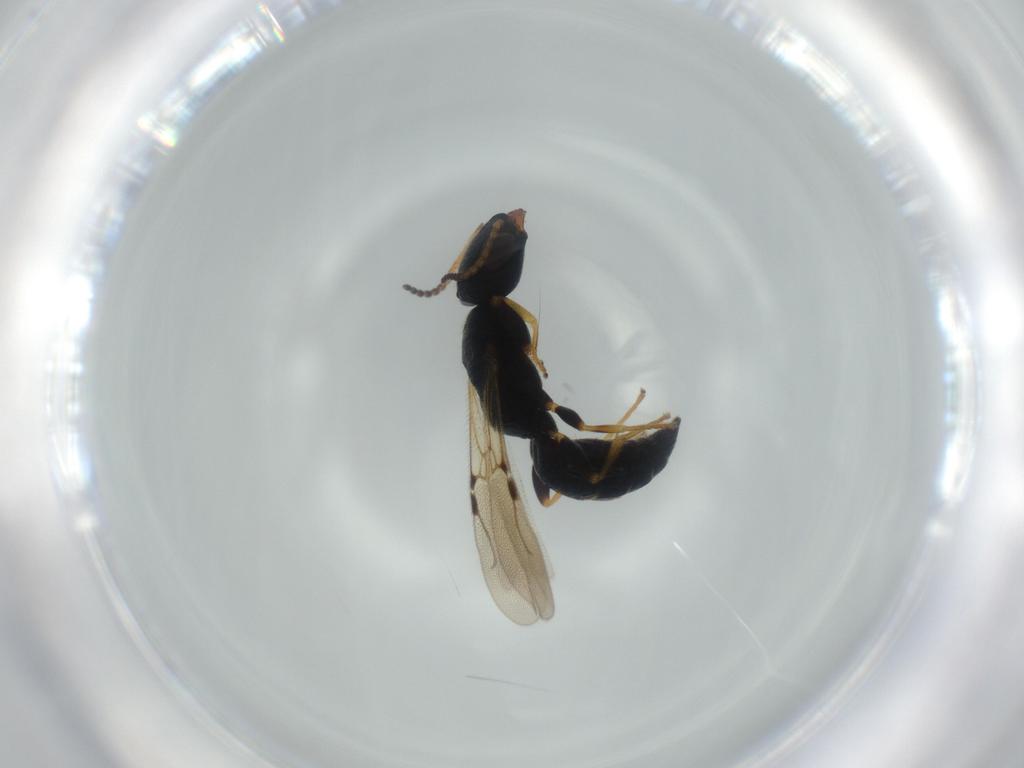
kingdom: Animalia
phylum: Arthropoda
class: Insecta
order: Hymenoptera
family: Bethylidae
